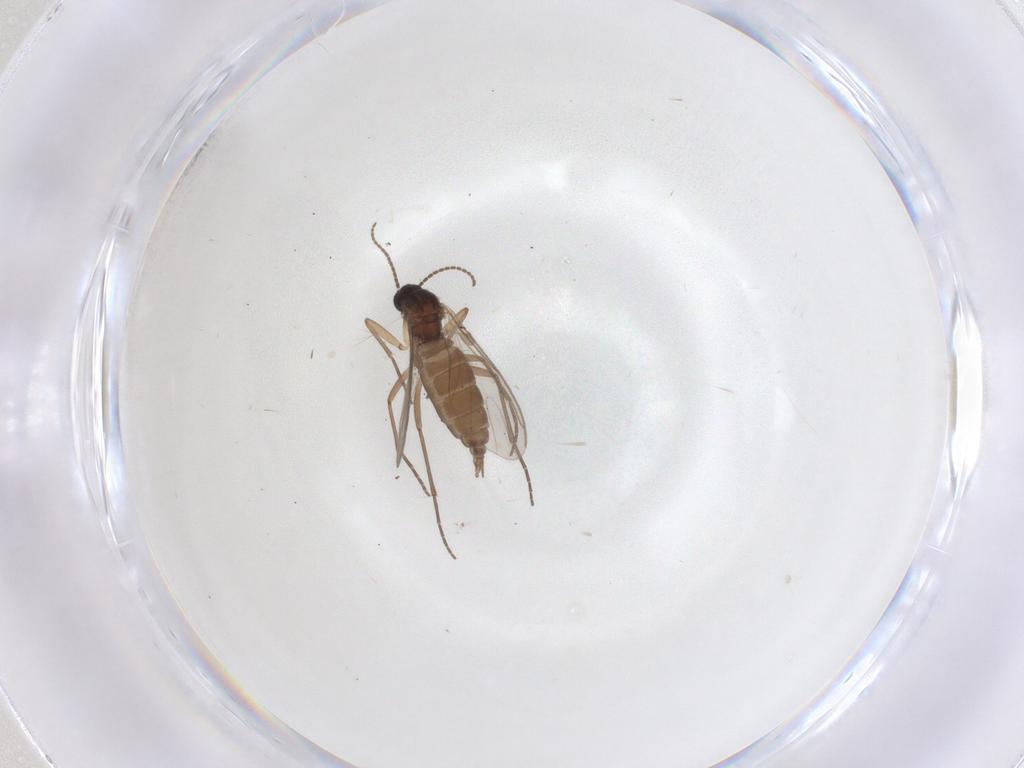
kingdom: Animalia
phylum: Arthropoda
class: Insecta
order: Diptera
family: Sciaridae
